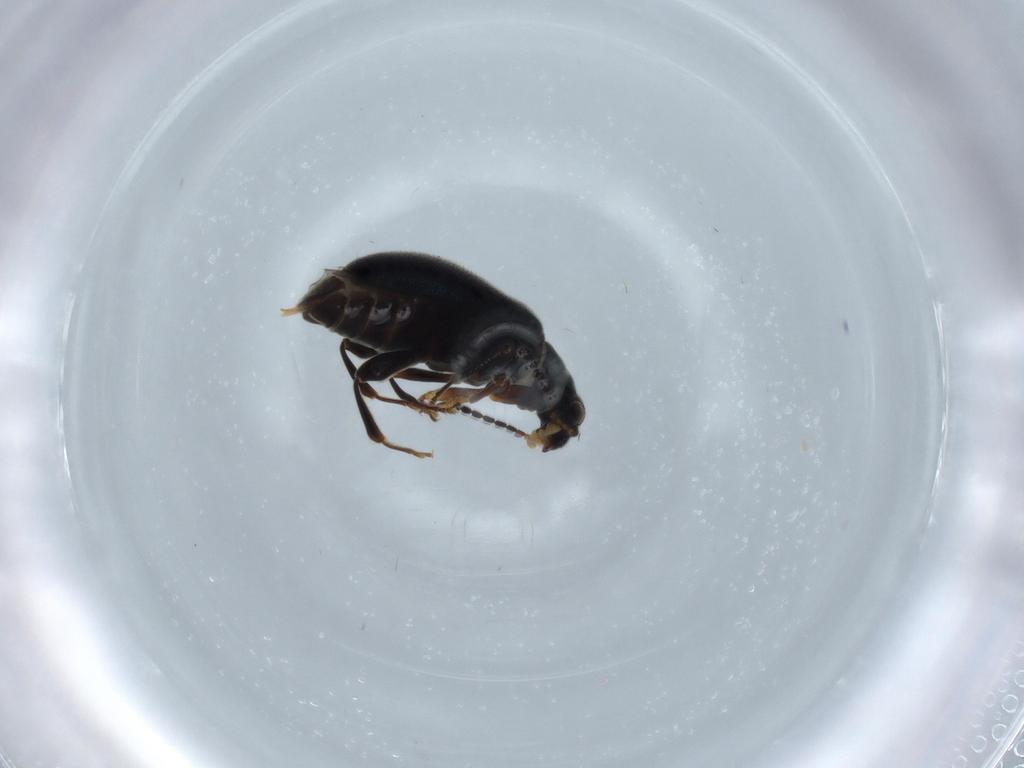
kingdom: Animalia
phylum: Arthropoda
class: Insecta
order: Coleoptera
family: Aderidae
